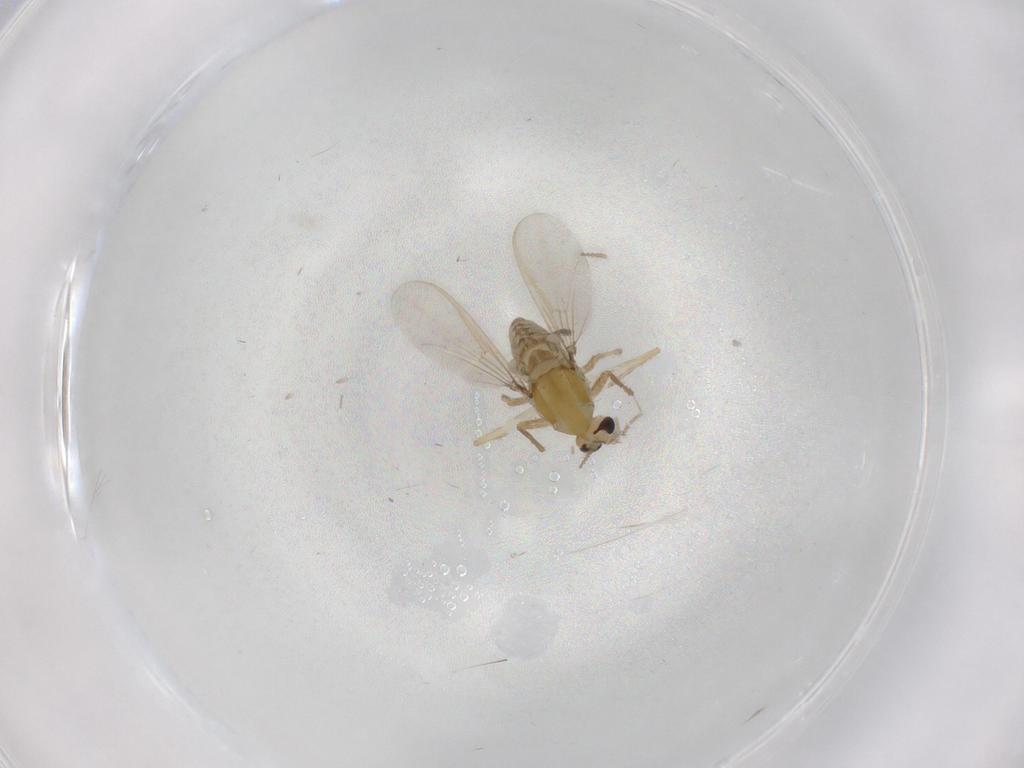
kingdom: Animalia
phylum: Arthropoda
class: Insecta
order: Diptera
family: Chironomidae
